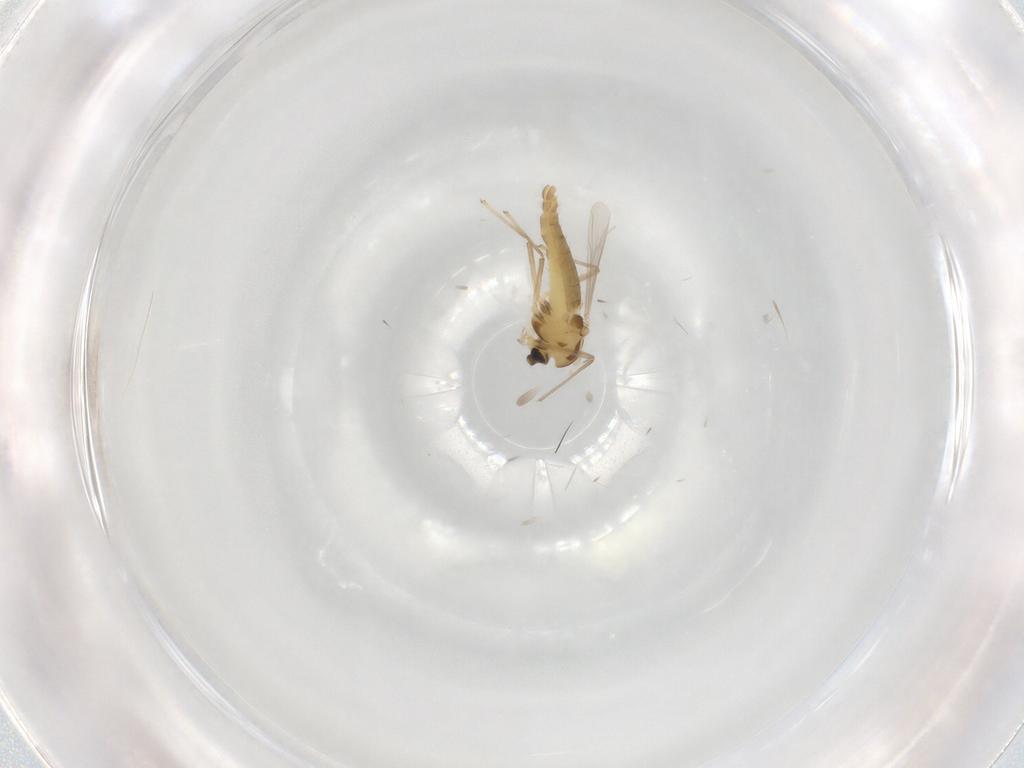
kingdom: Animalia
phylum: Arthropoda
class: Insecta
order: Diptera
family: Chironomidae
